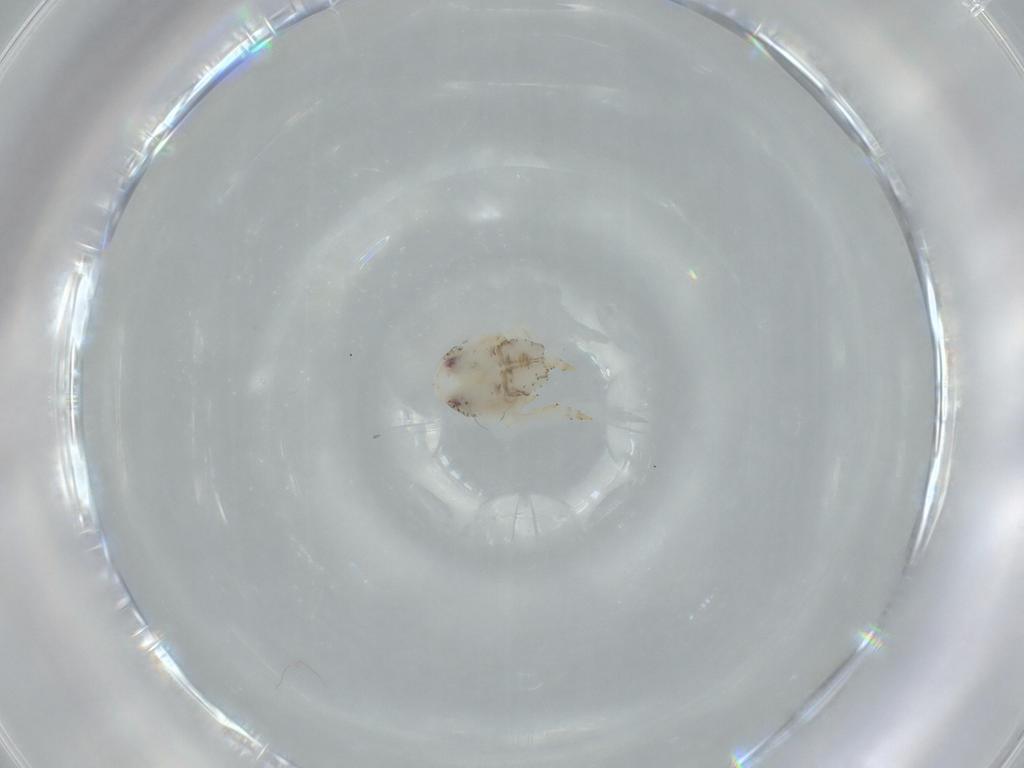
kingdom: Animalia
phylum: Arthropoda
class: Insecta
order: Hemiptera
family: Acanaloniidae
